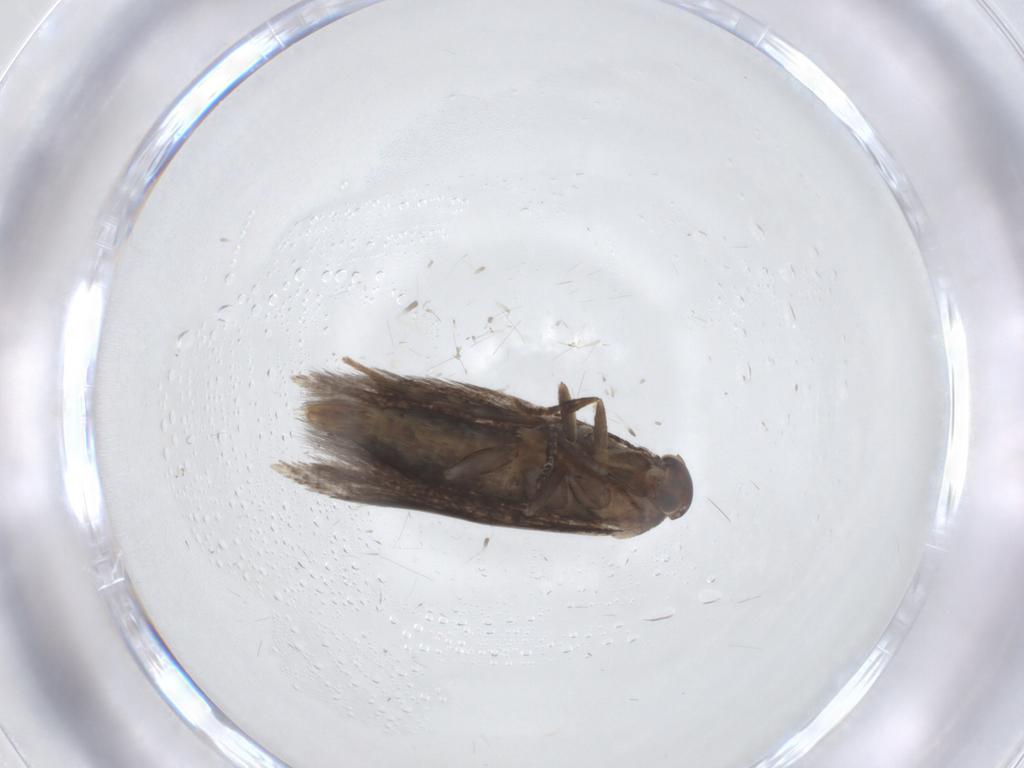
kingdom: Animalia
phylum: Arthropoda
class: Insecta
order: Lepidoptera
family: Elachistidae
